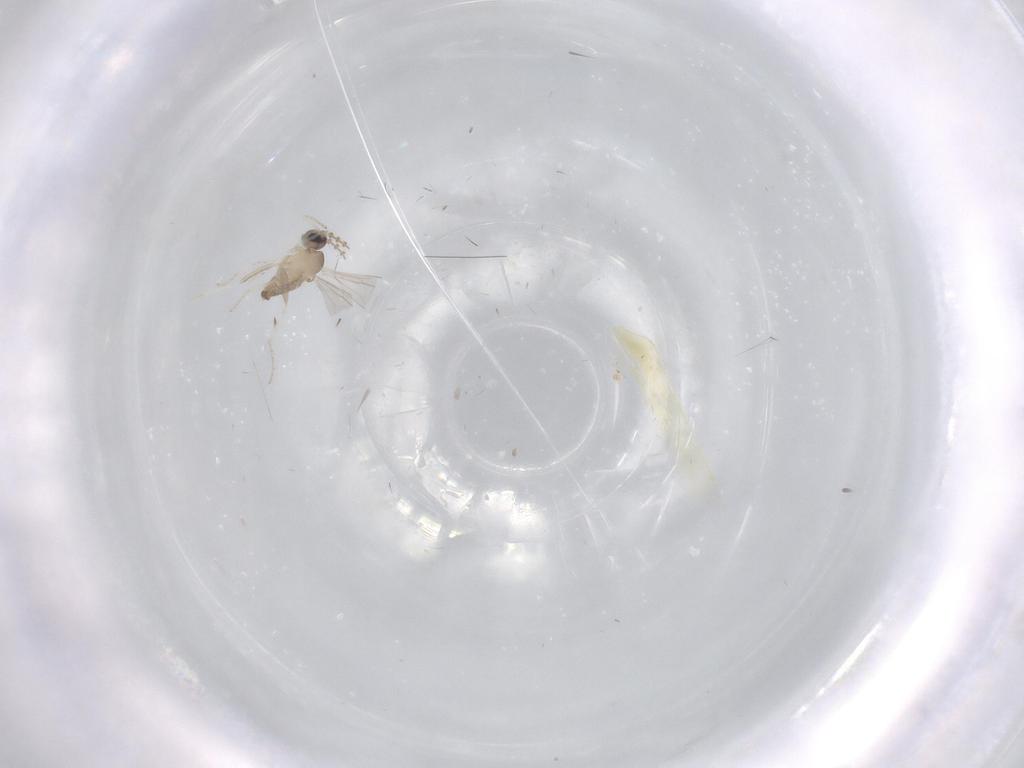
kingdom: Animalia
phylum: Arthropoda
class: Insecta
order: Diptera
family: Cecidomyiidae
